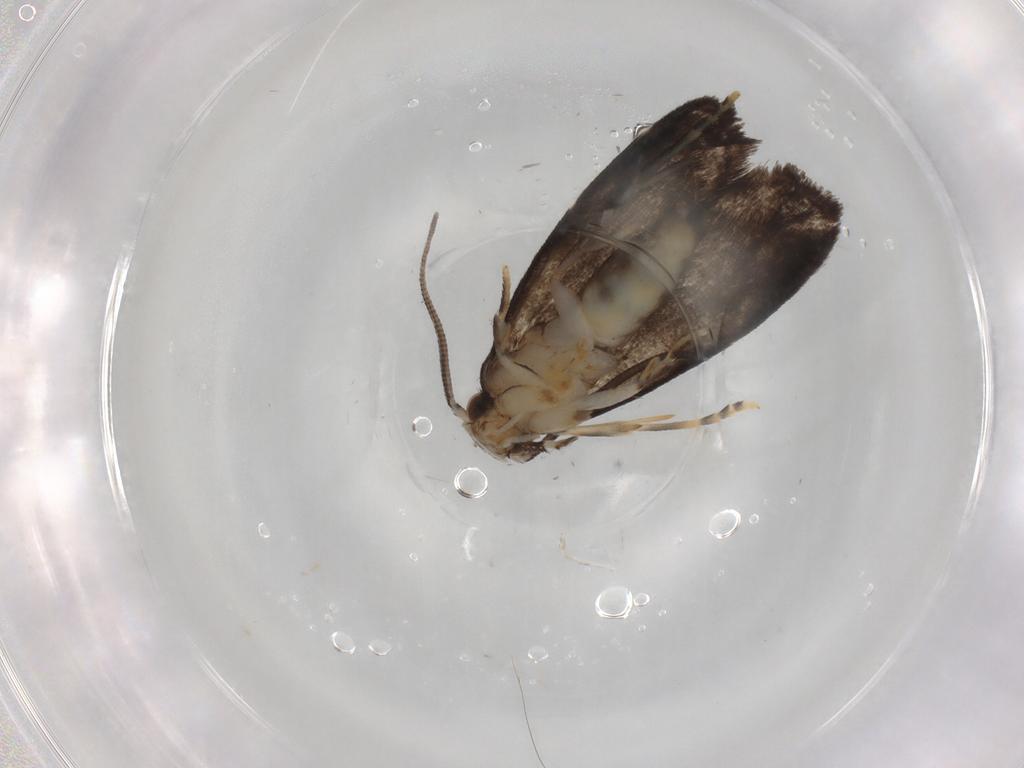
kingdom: Animalia
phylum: Arthropoda
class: Insecta
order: Lepidoptera
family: Dryadaulidae
